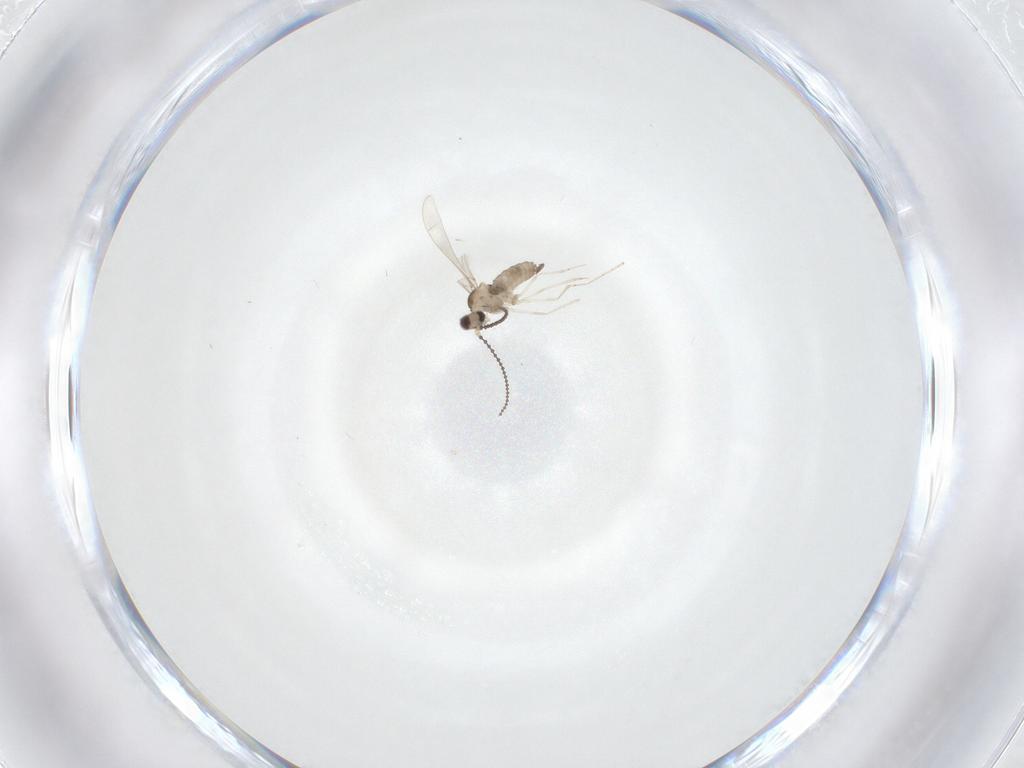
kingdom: Animalia
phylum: Arthropoda
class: Insecta
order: Diptera
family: Cecidomyiidae
